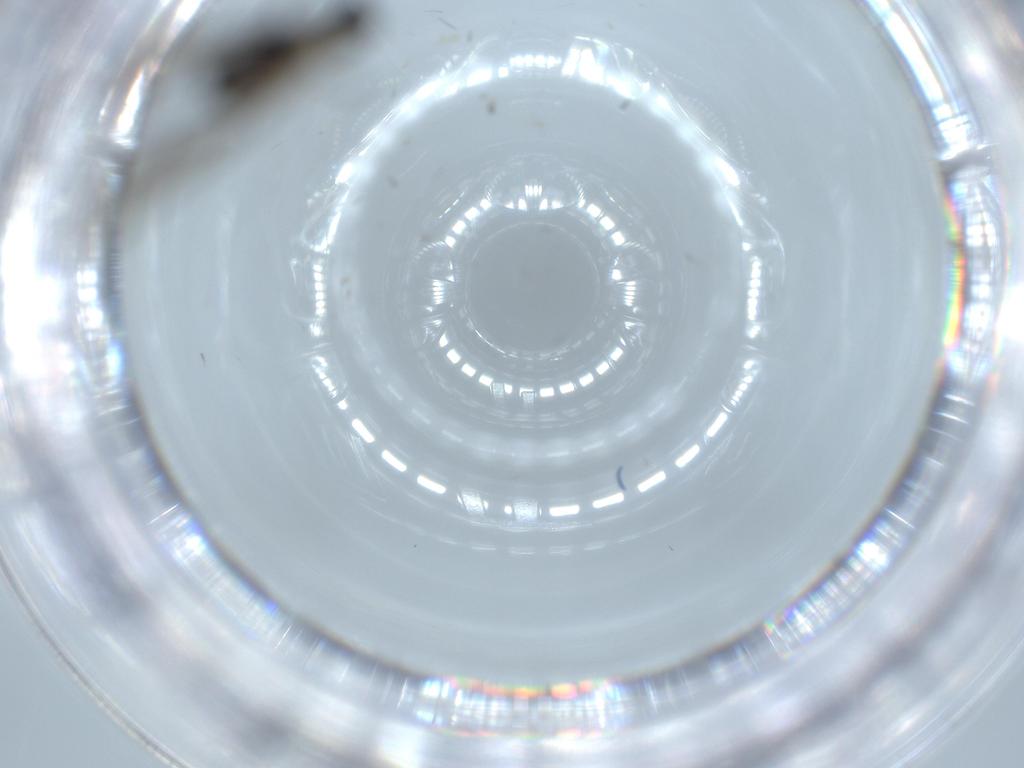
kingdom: Animalia
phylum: Arthropoda
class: Insecta
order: Diptera
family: Sciaridae
